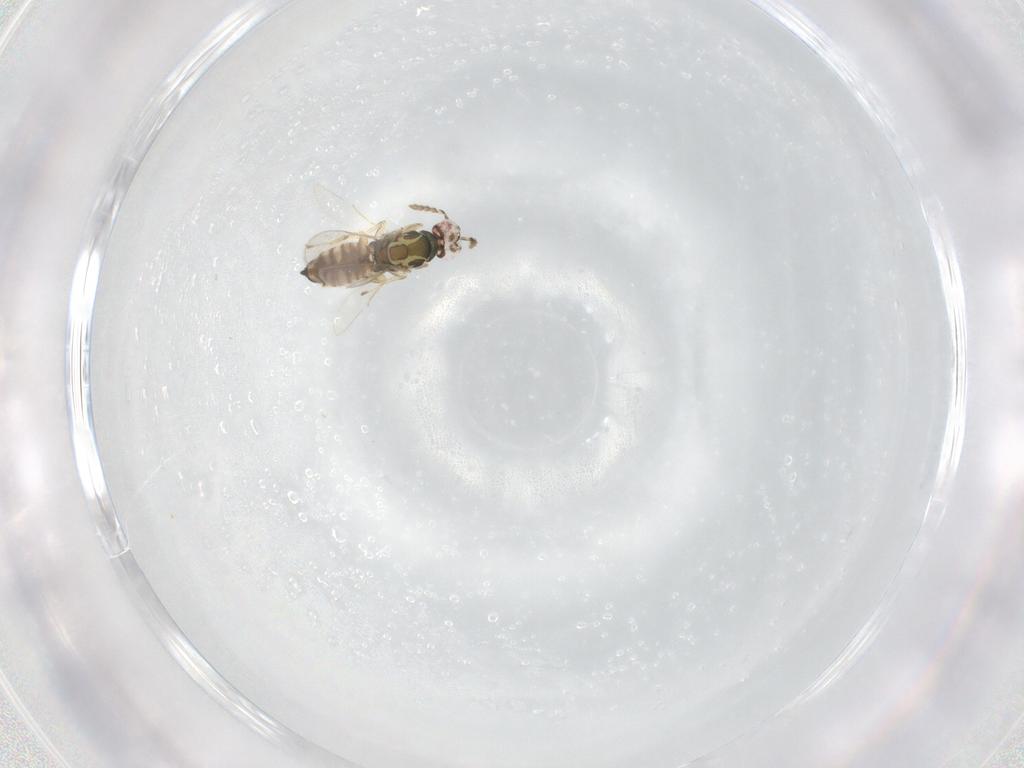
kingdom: Animalia
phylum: Arthropoda
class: Insecta
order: Hymenoptera
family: Eulophidae
